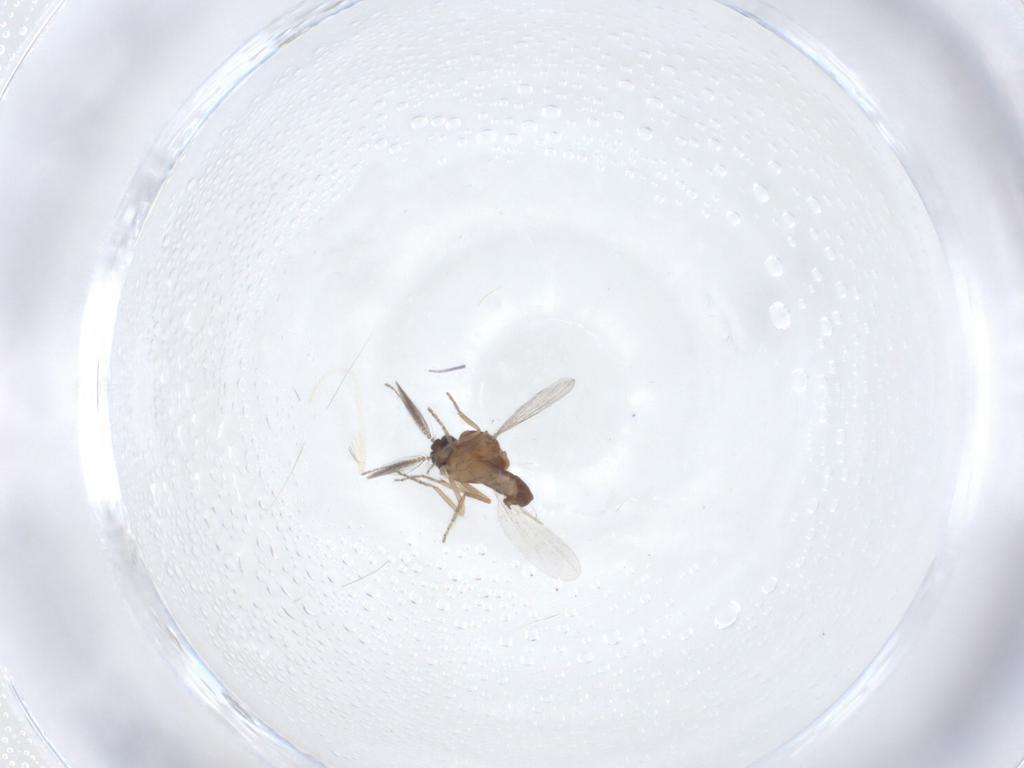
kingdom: Animalia
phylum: Arthropoda
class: Insecta
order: Diptera
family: Ceratopogonidae
